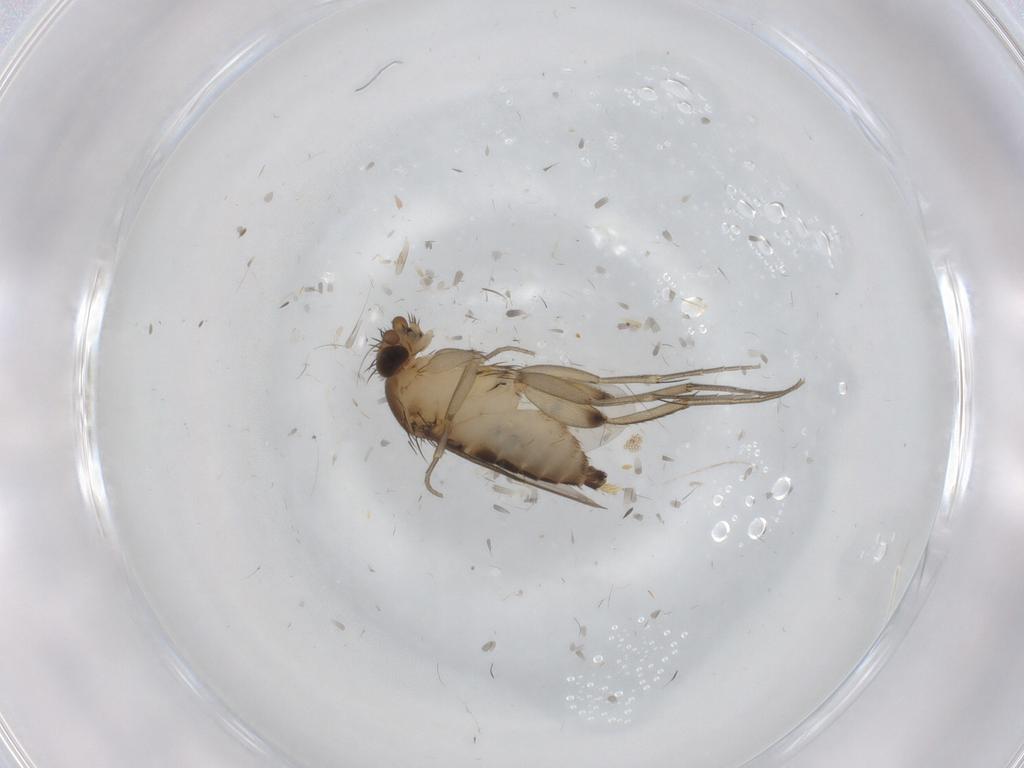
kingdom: Animalia
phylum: Arthropoda
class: Insecta
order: Diptera
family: Chironomidae
